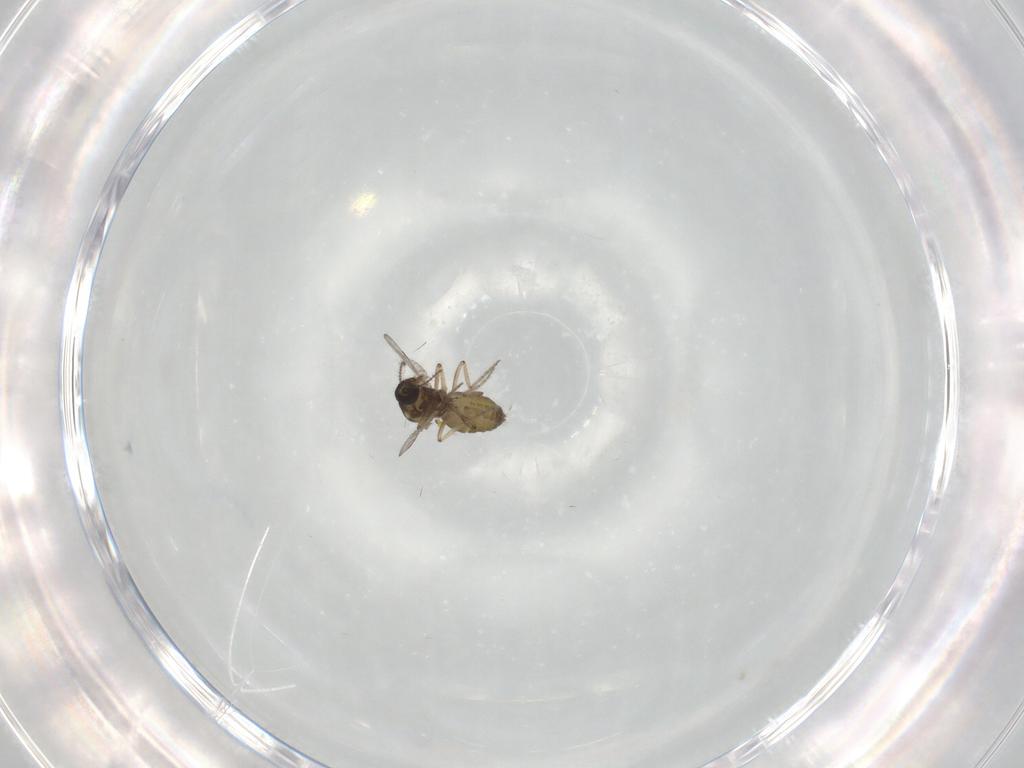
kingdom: Animalia
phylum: Arthropoda
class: Insecta
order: Diptera
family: Ceratopogonidae
